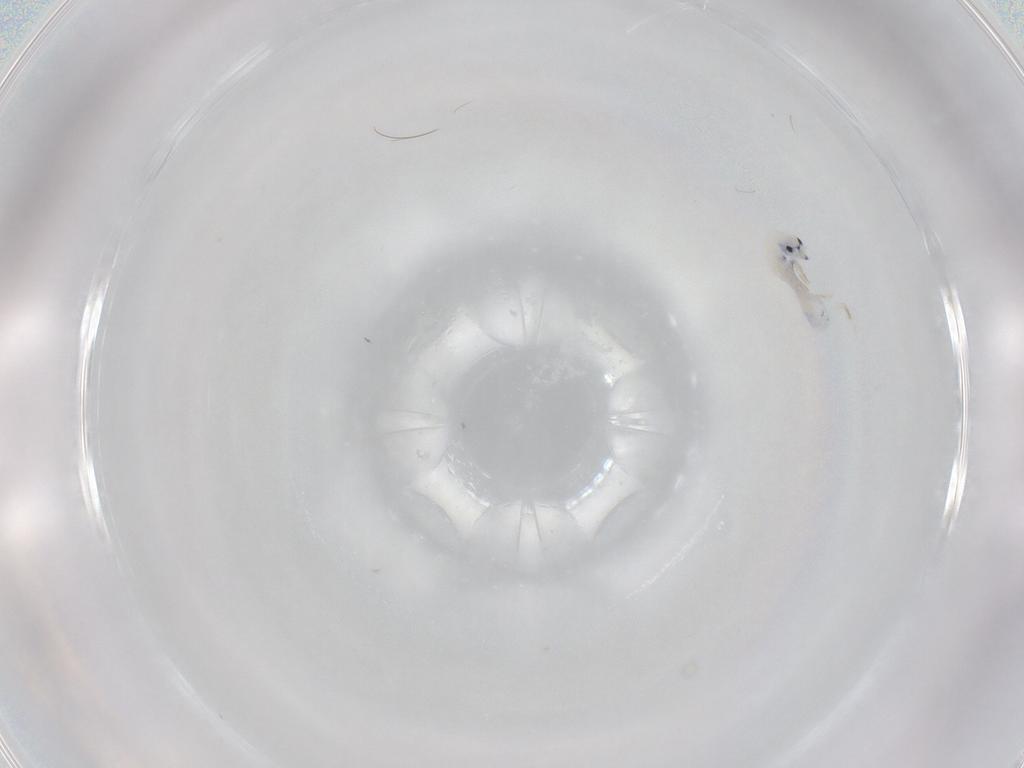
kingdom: Animalia
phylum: Arthropoda
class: Collembola
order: Entomobryomorpha
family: Entomobryidae
